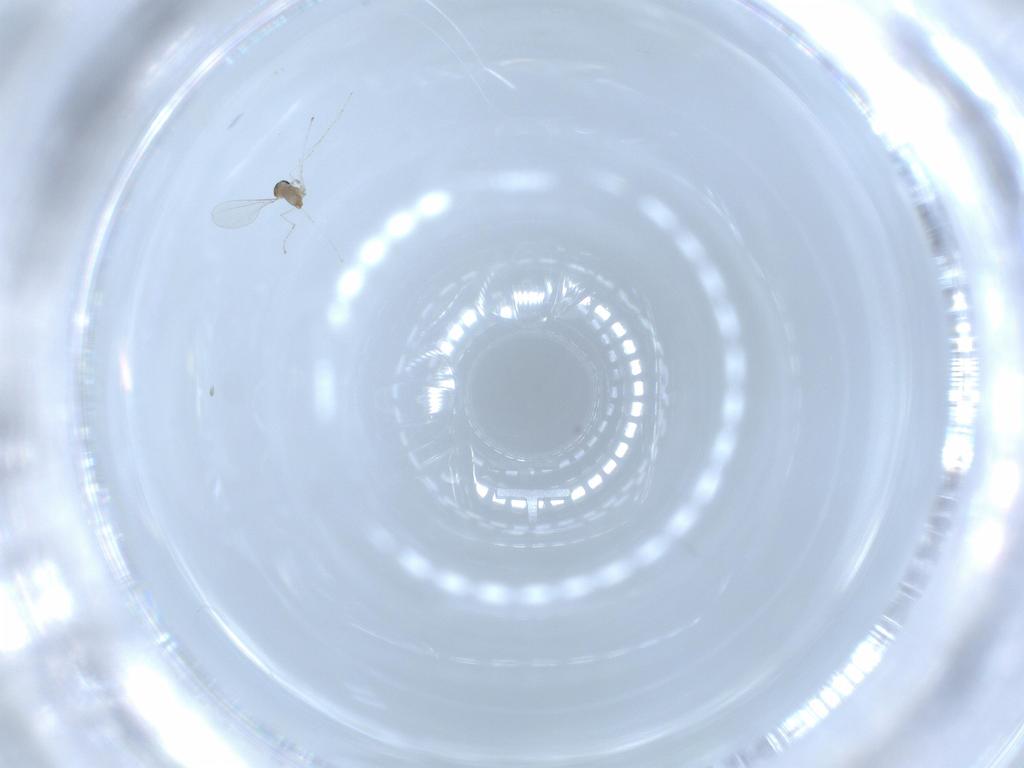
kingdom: Animalia
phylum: Arthropoda
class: Insecta
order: Diptera
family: Cecidomyiidae
